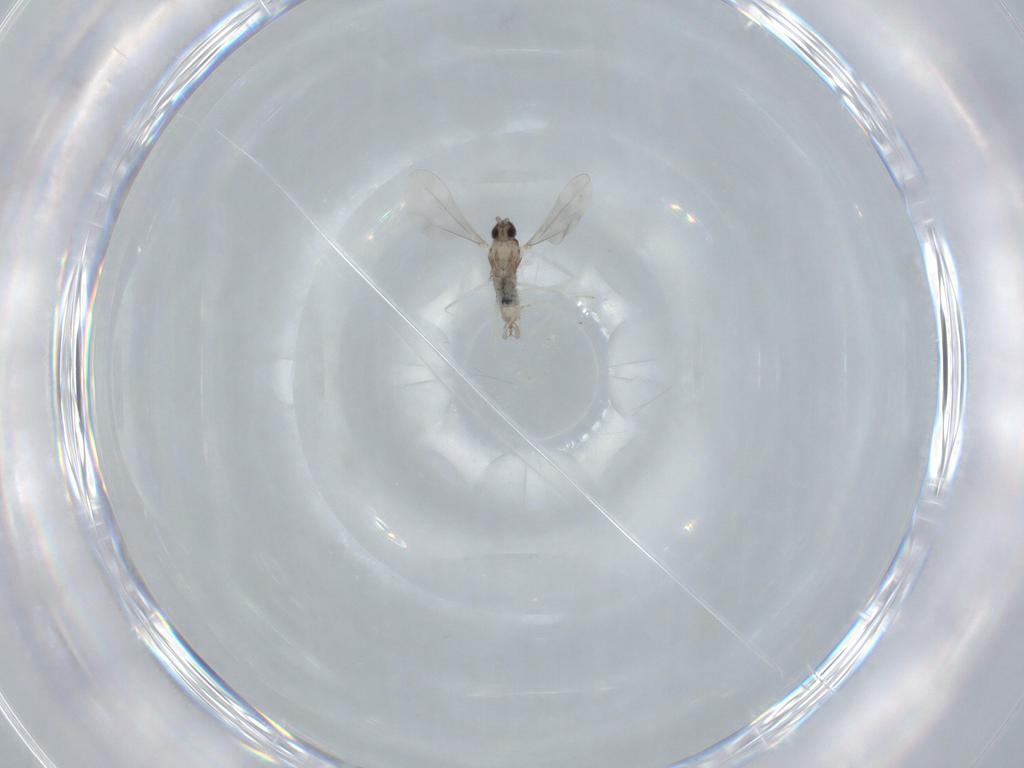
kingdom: Animalia
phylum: Arthropoda
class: Insecta
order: Diptera
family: Cecidomyiidae
